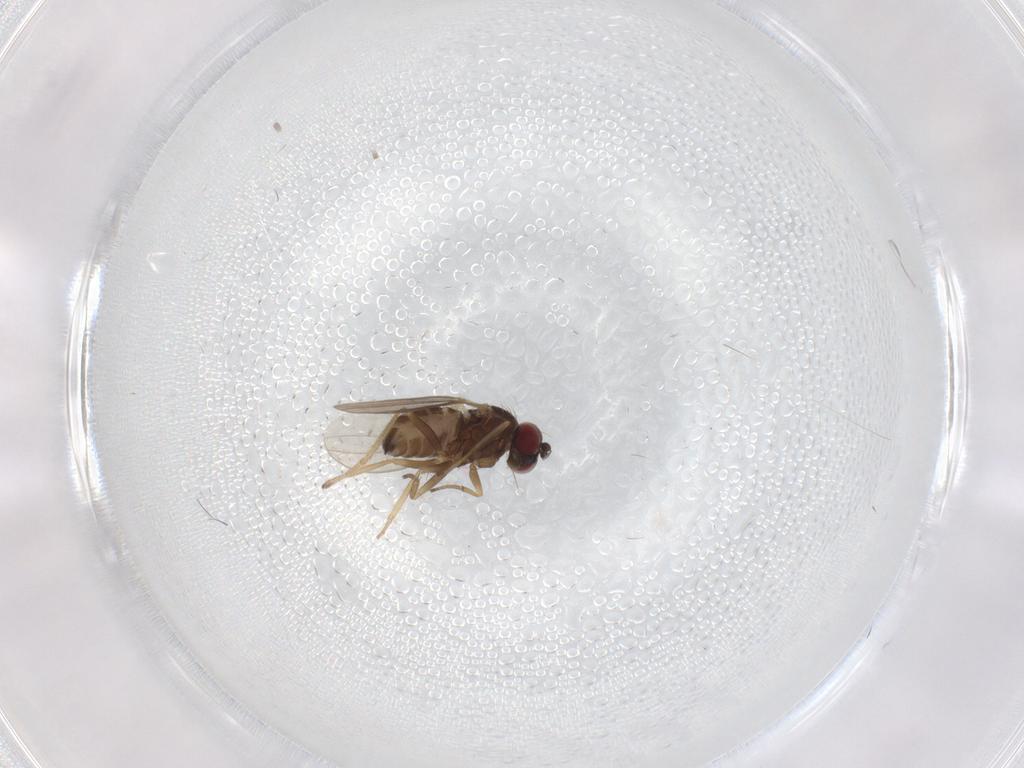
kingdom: Animalia
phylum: Arthropoda
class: Insecta
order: Diptera
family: Dolichopodidae
